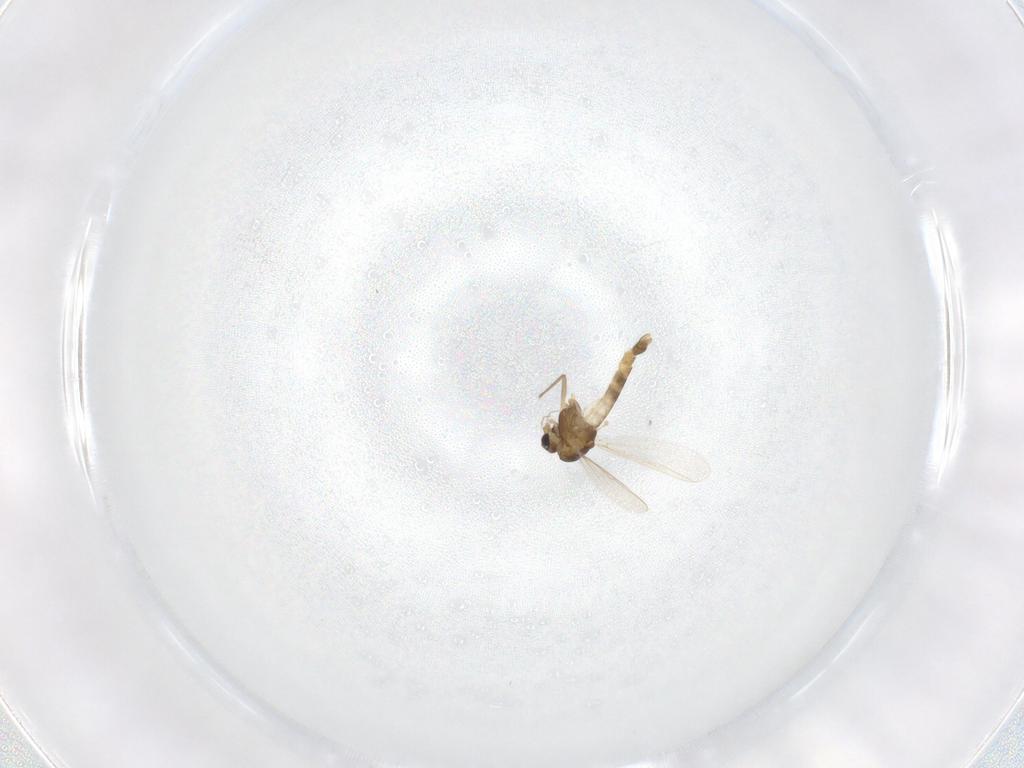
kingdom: Animalia
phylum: Arthropoda
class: Insecta
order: Diptera
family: Chironomidae
